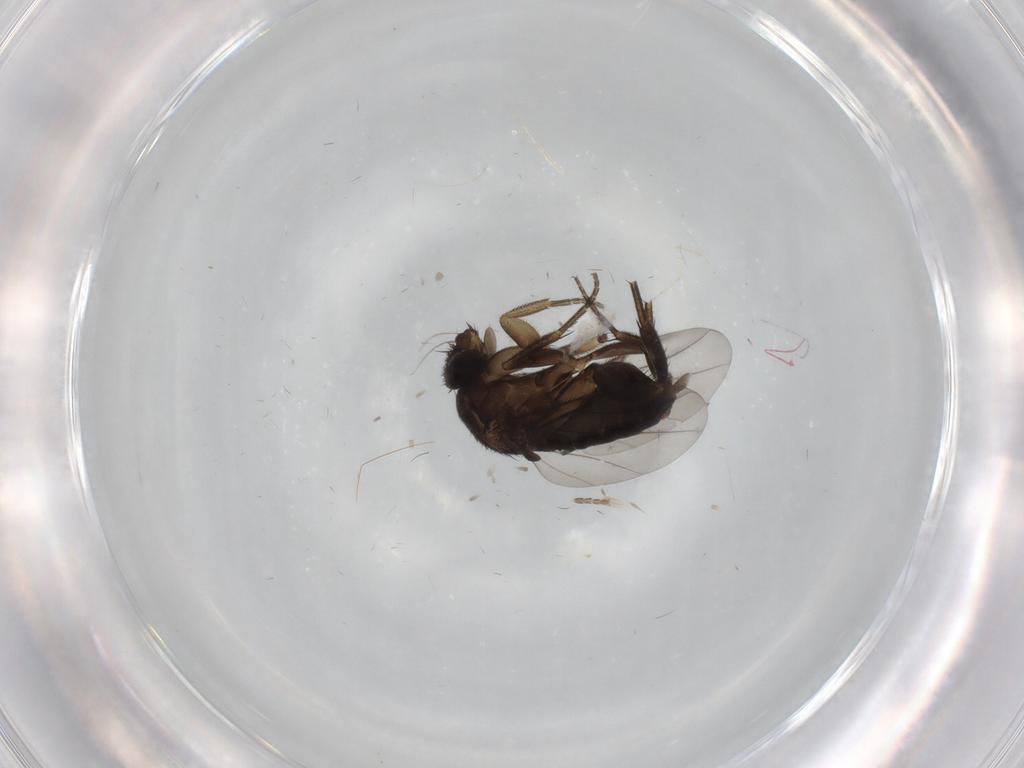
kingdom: Animalia
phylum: Arthropoda
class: Insecta
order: Diptera
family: Phoridae
